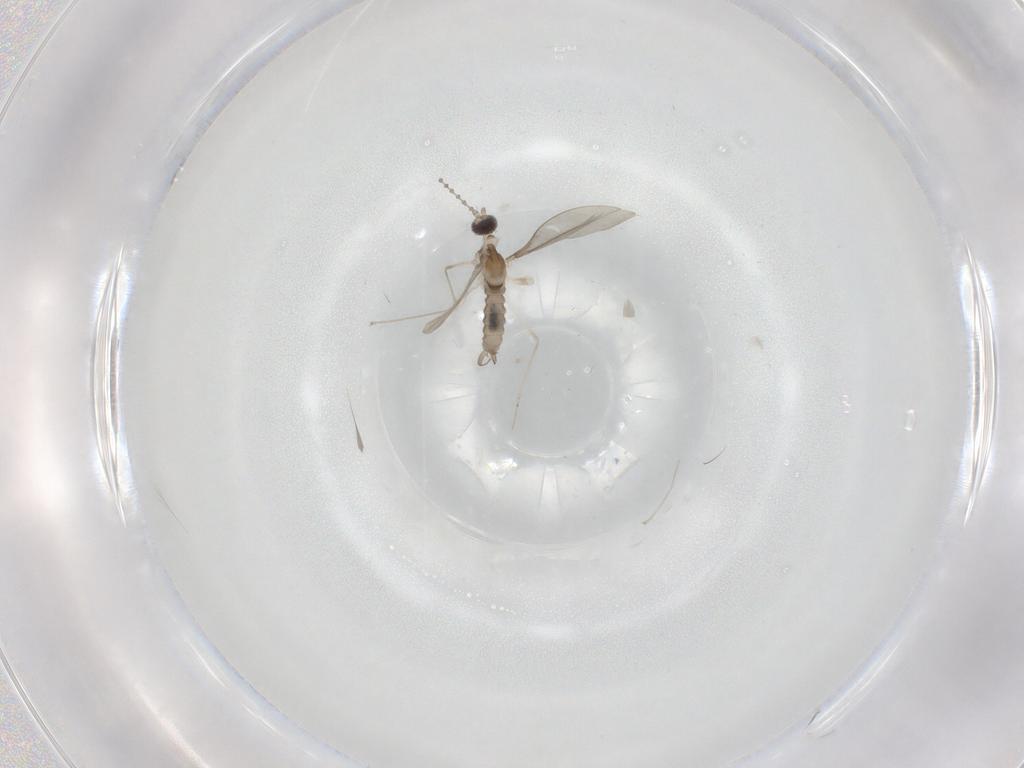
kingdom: Animalia
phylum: Arthropoda
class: Insecta
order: Diptera
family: Cecidomyiidae
